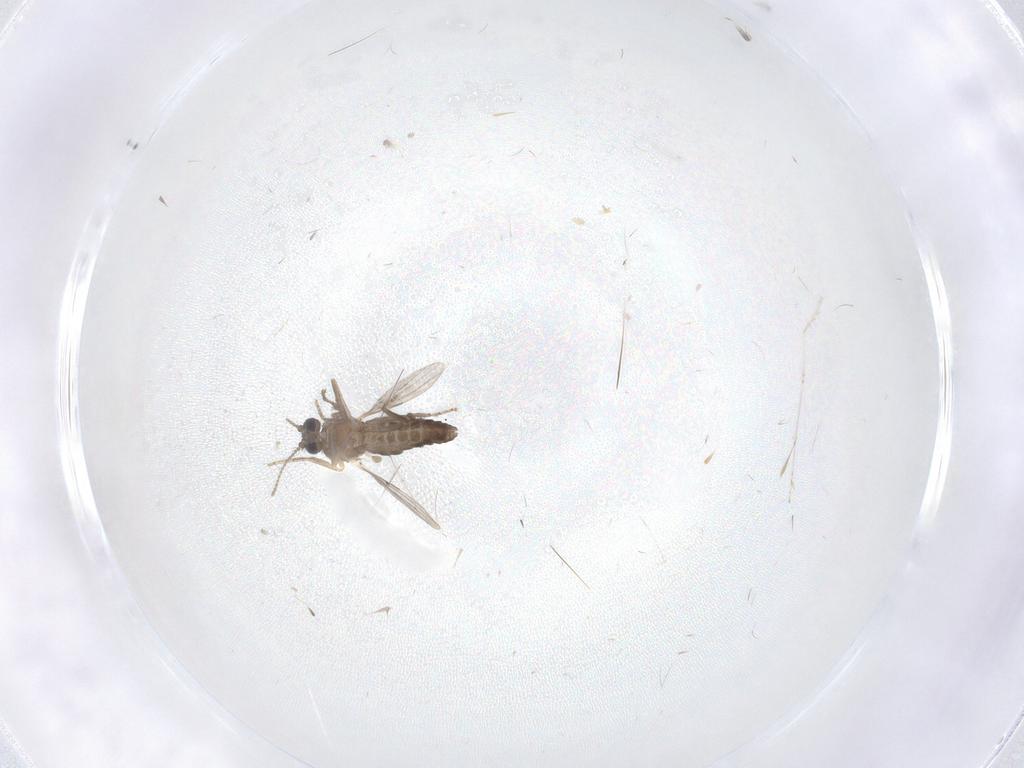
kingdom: Animalia
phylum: Arthropoda
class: Insecta
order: Diptera
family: Ceratopogonidae
